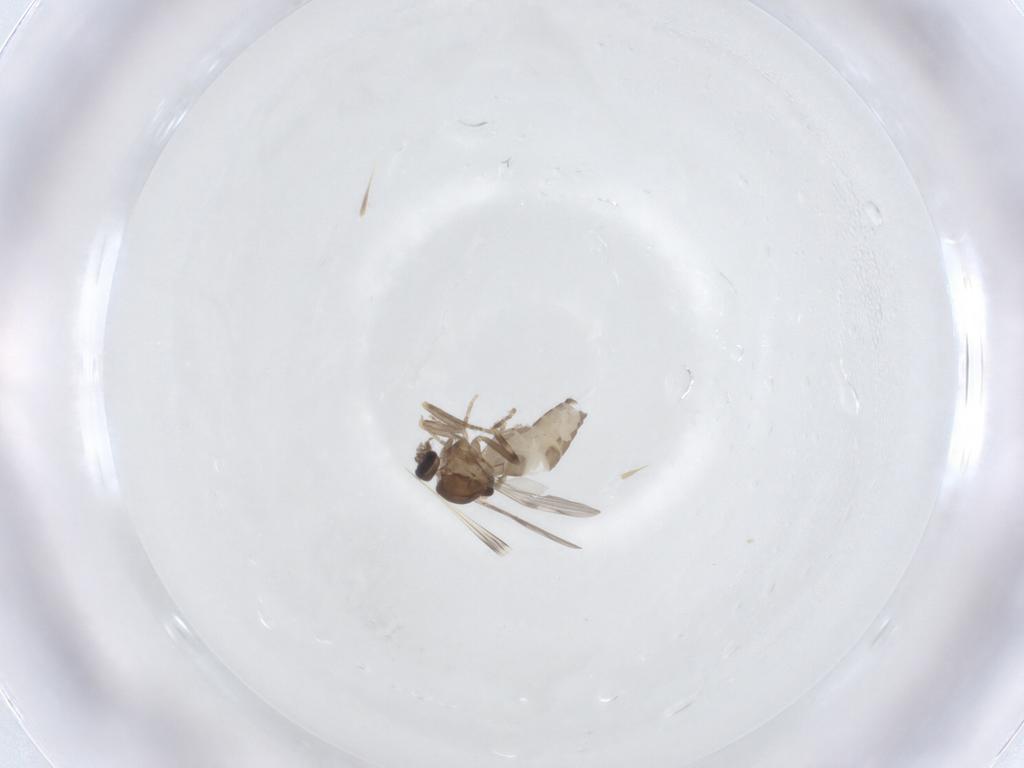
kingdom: Animalia
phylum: Arthropoda
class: Insecta
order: Diptera
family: Ceratopogonidae
